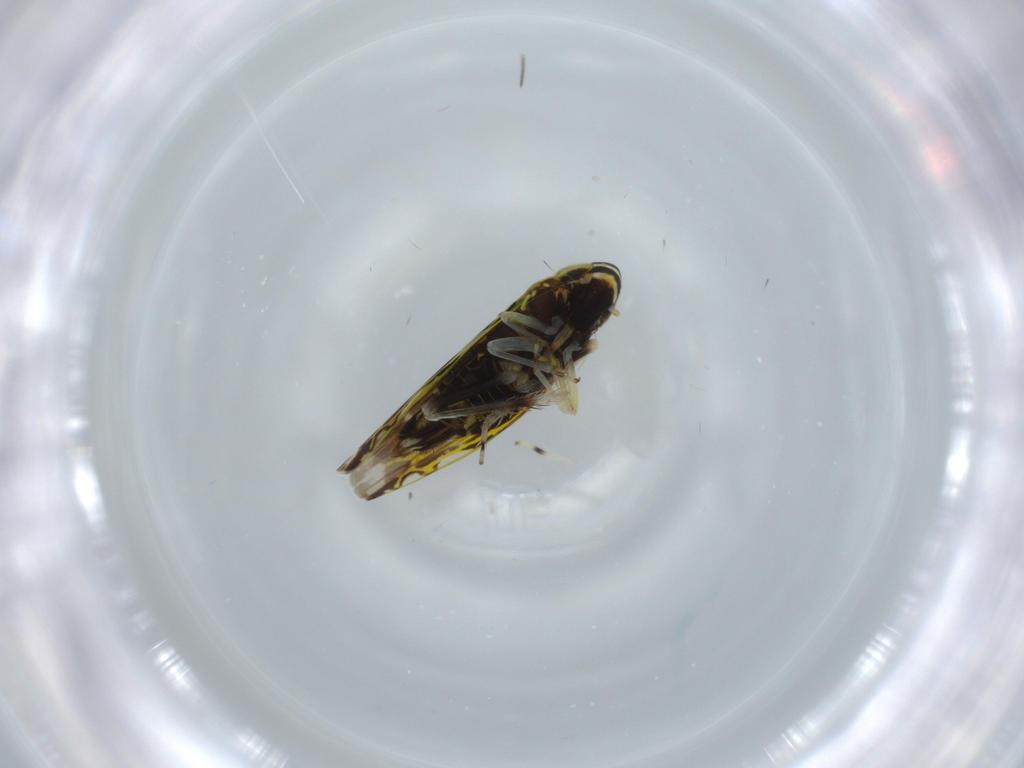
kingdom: Animalia
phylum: Arthropoda
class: Insecta
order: Hemiptera
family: Cicadellidae
